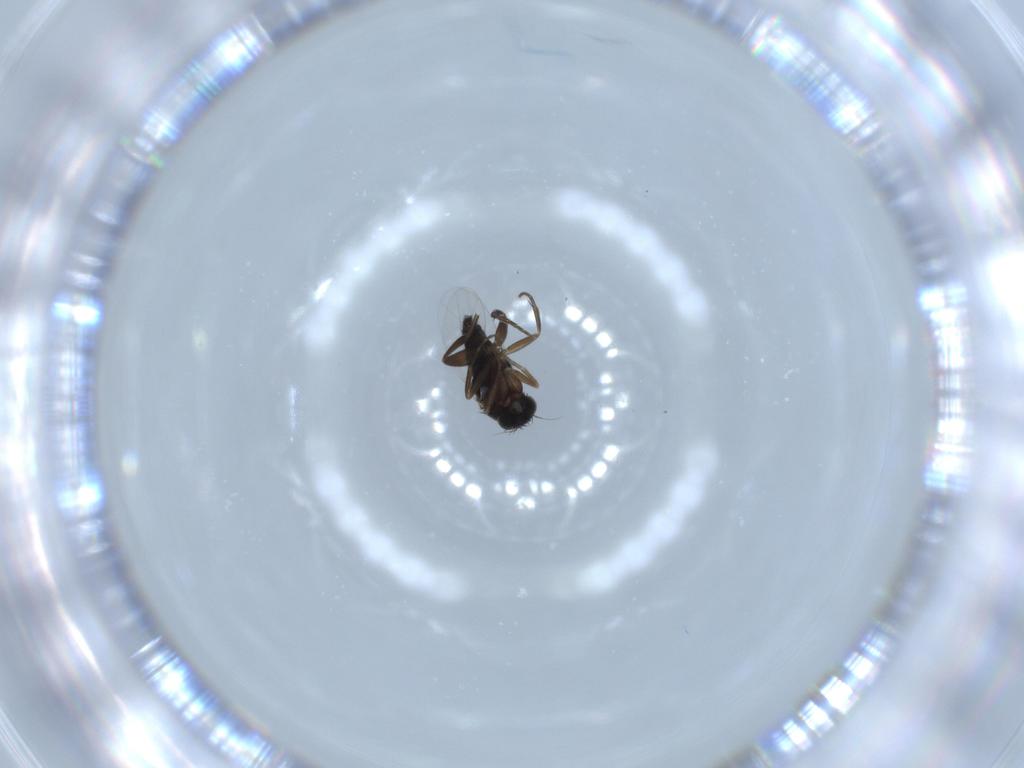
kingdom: Animalia
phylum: Arthropoda
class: Insecta
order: Diptera
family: Phoridae
